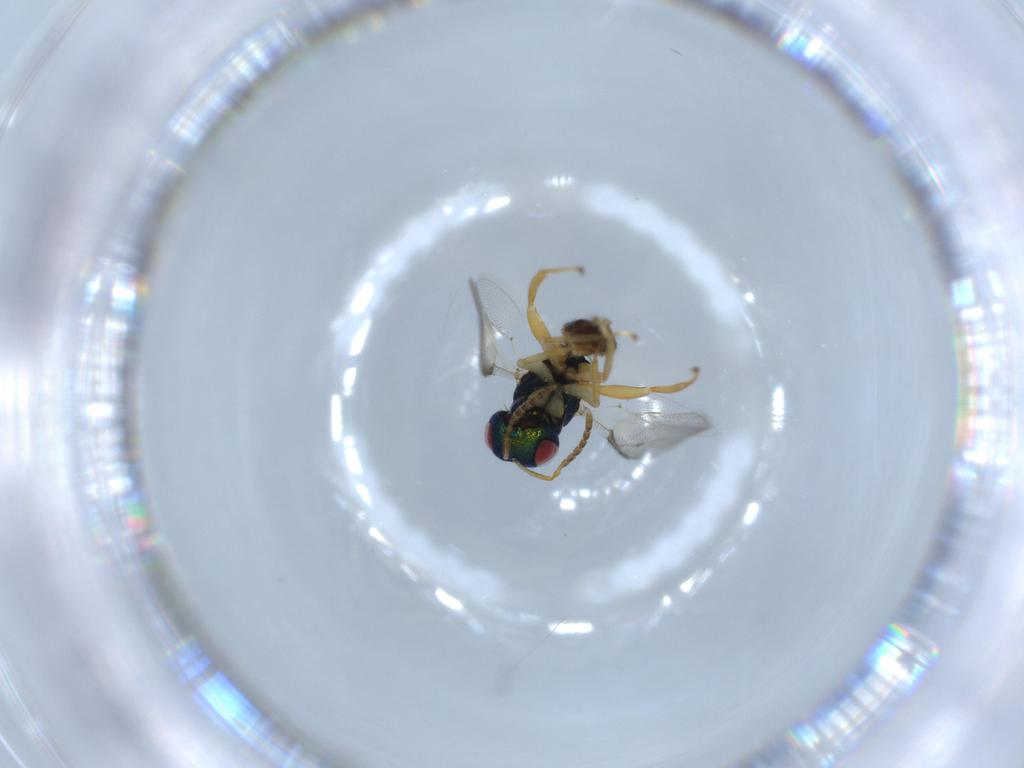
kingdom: Animalia
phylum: Arthropoda
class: Insecta
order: Hymenoptera
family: Pteromalidae
